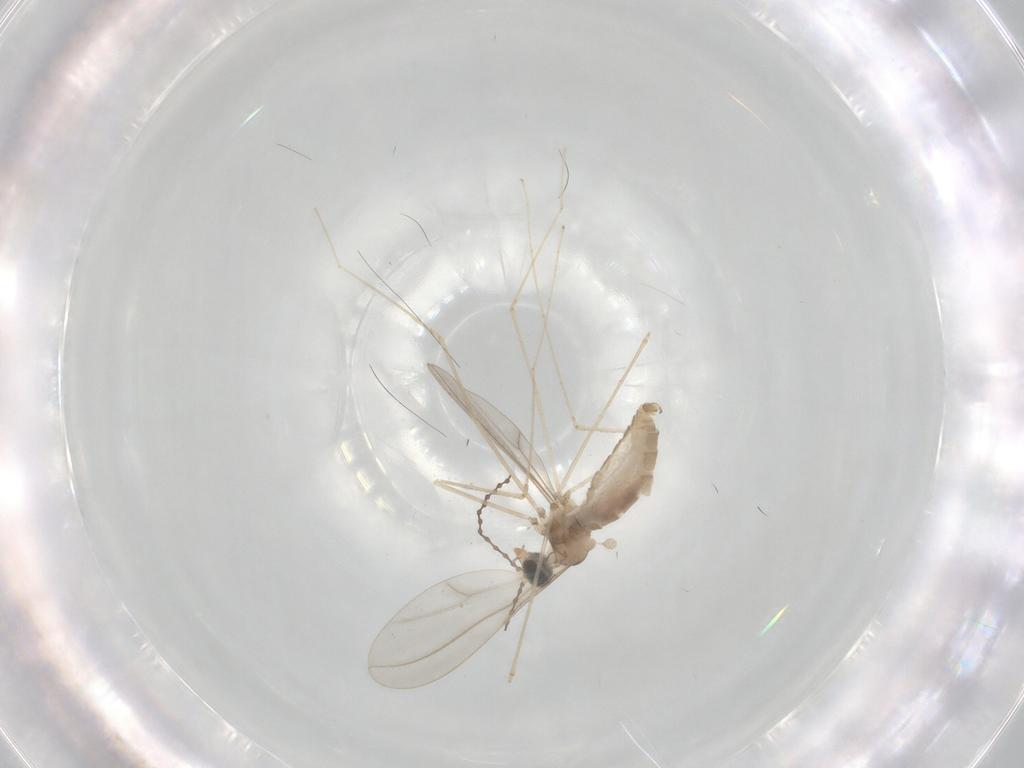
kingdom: Animalia
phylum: Arthropoda
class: Insecta
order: Diptera
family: Cecidomyiidae
